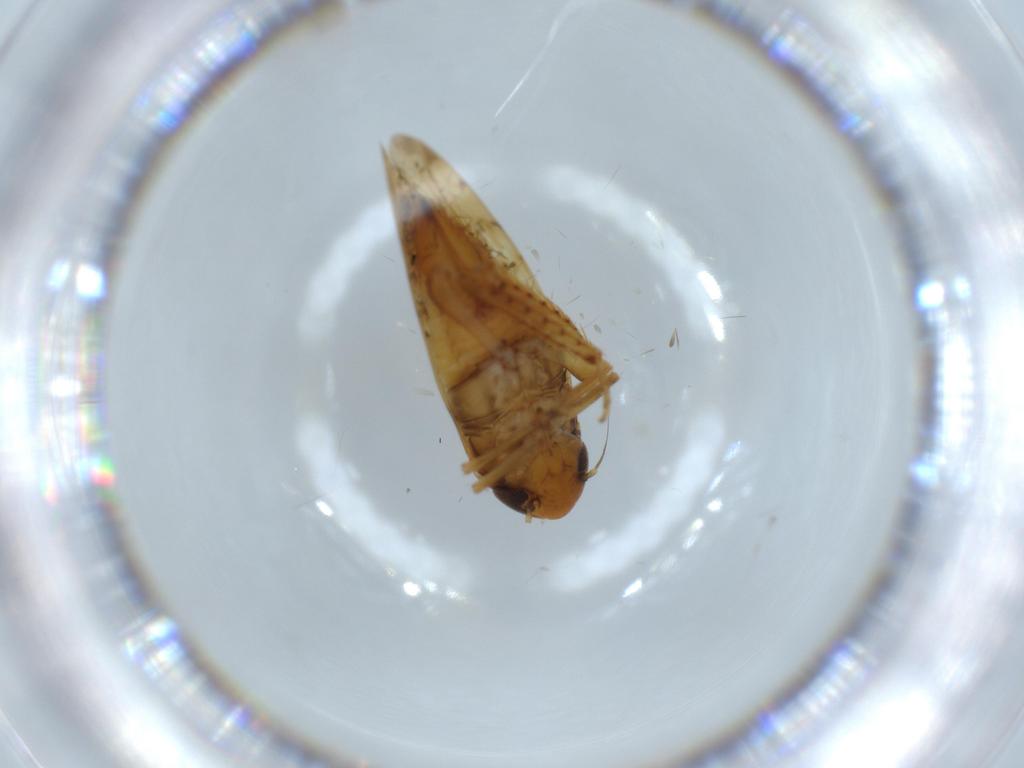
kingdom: Animalia
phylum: Arthropoda
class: Insecta
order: Hemiptera
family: Cicadellidae
